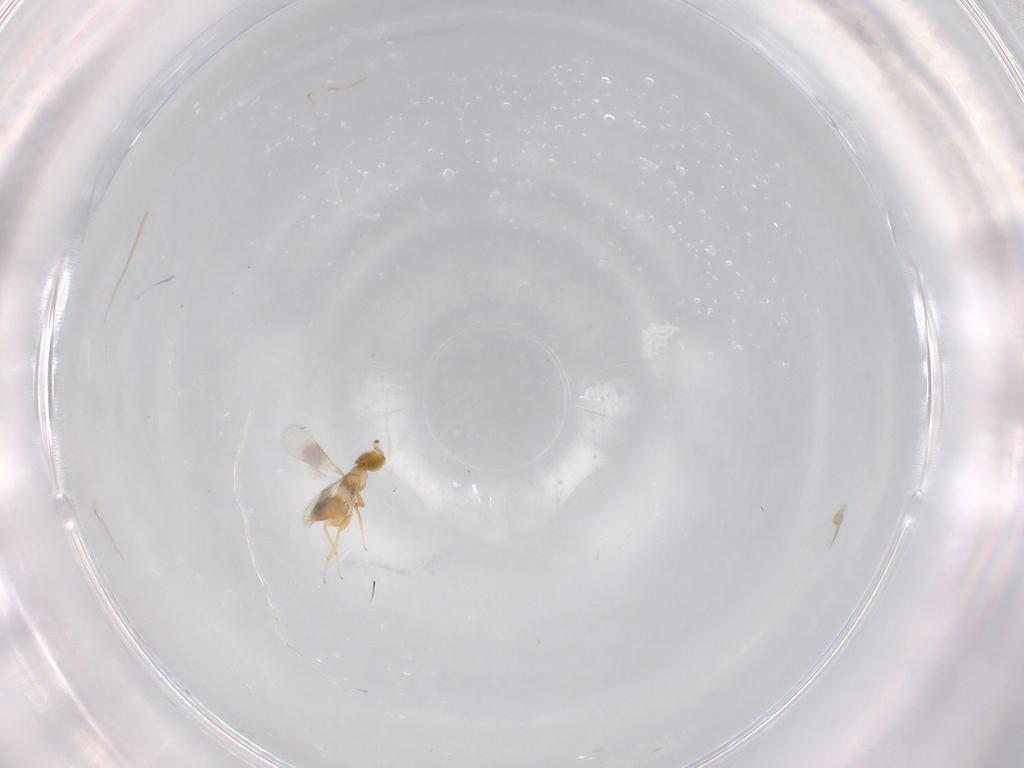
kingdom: Animalia
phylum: Arthropoda
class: Insecta
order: Hymenoptera
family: Encyrtidae
